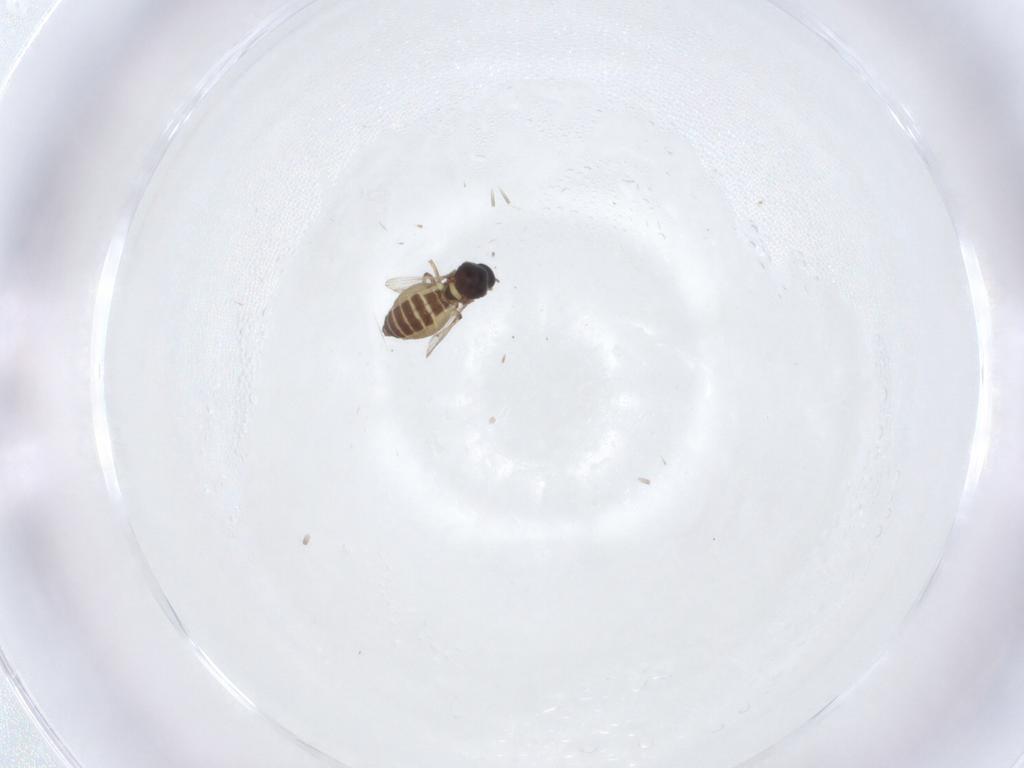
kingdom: Animalia
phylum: Arthropoda
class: Insecta
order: Diptera
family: Ceratopogonidae
